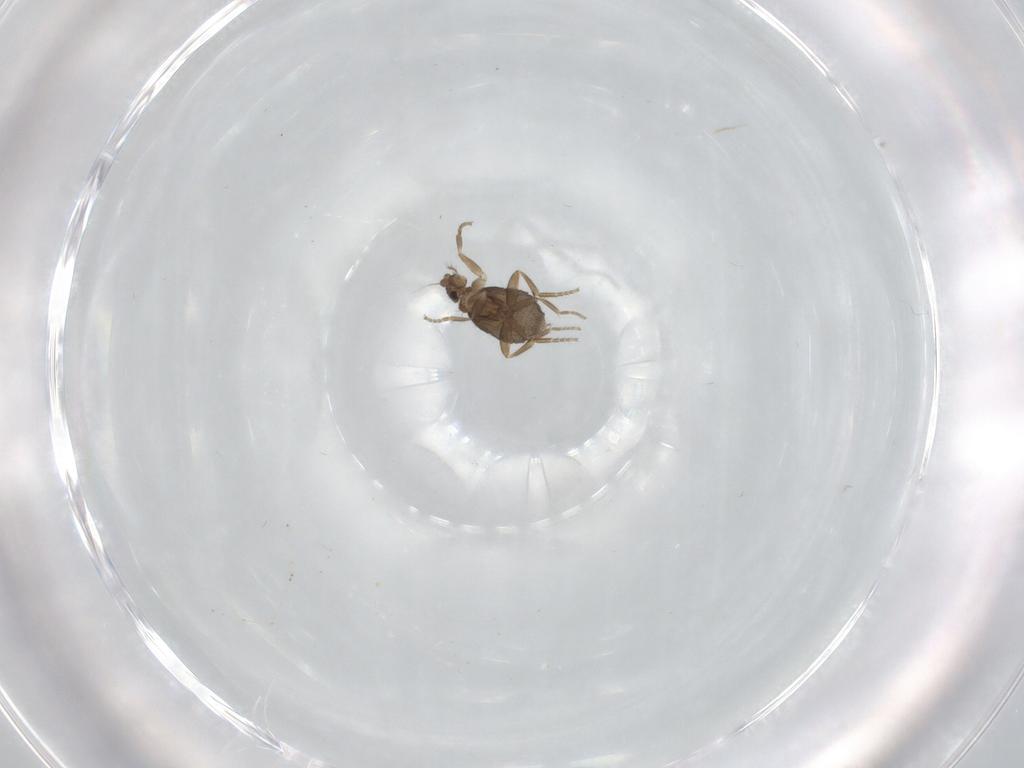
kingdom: Animalia
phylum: Arthropoda
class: Insecta
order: Diptera
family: Phoridae
